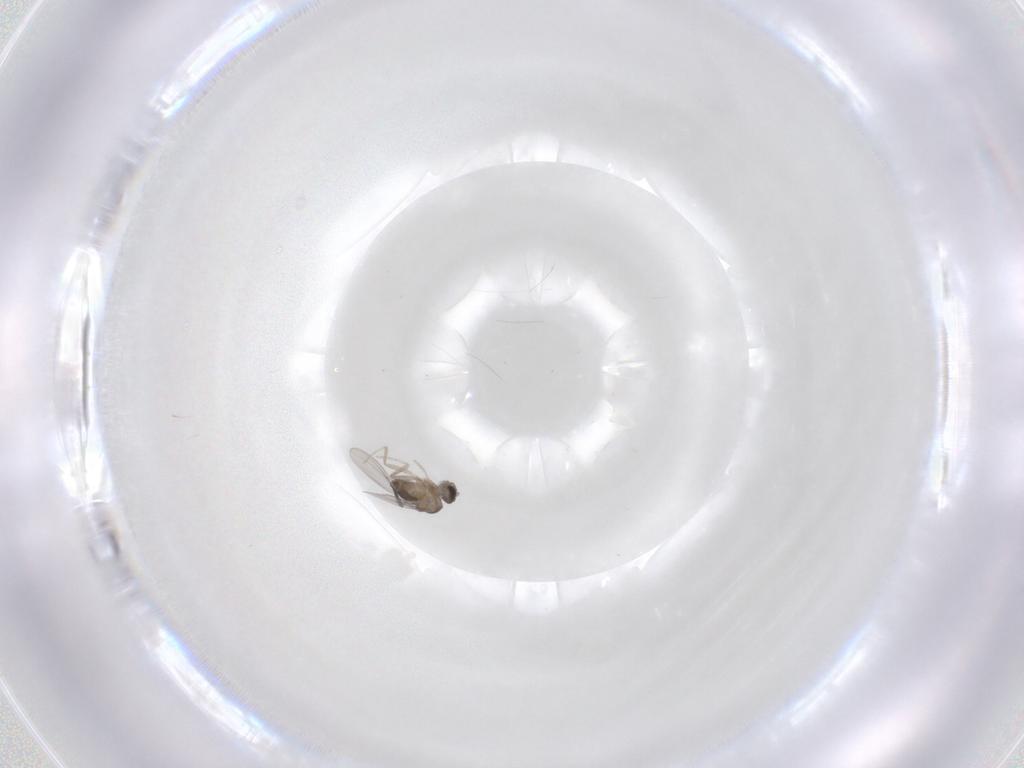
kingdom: Animalia
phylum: Arthropoda
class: Insecta
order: Diptera
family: Cecidomyiidae
